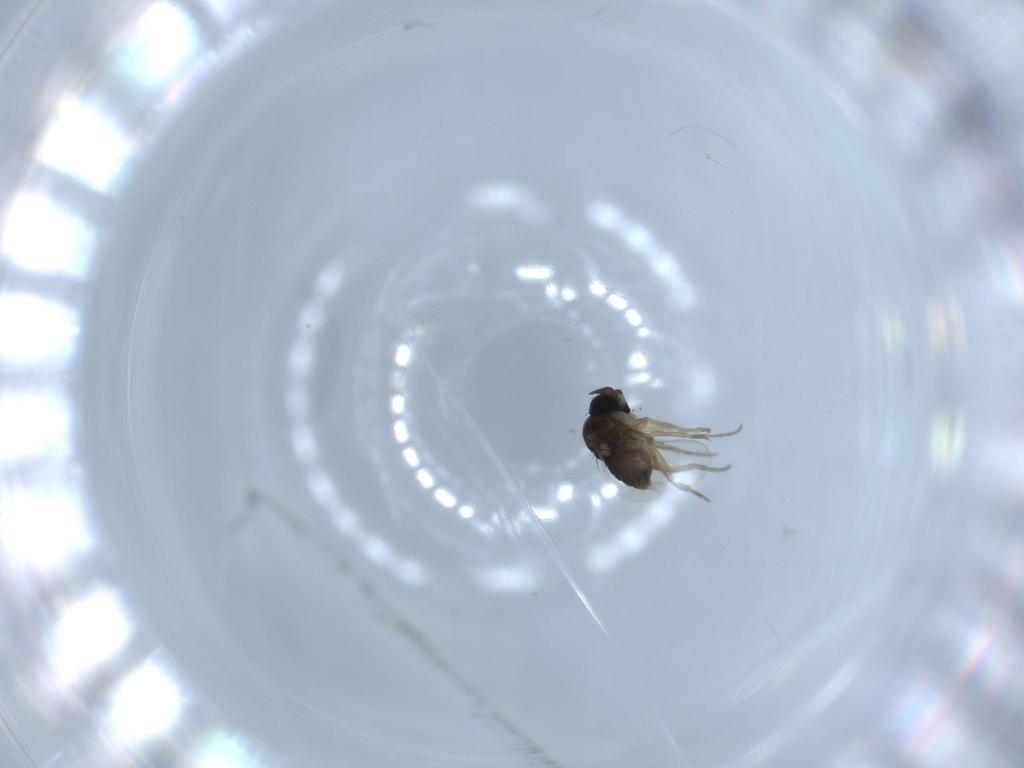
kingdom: Animalia
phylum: Arthropoda
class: Insecta
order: Diptera
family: Phoridae
